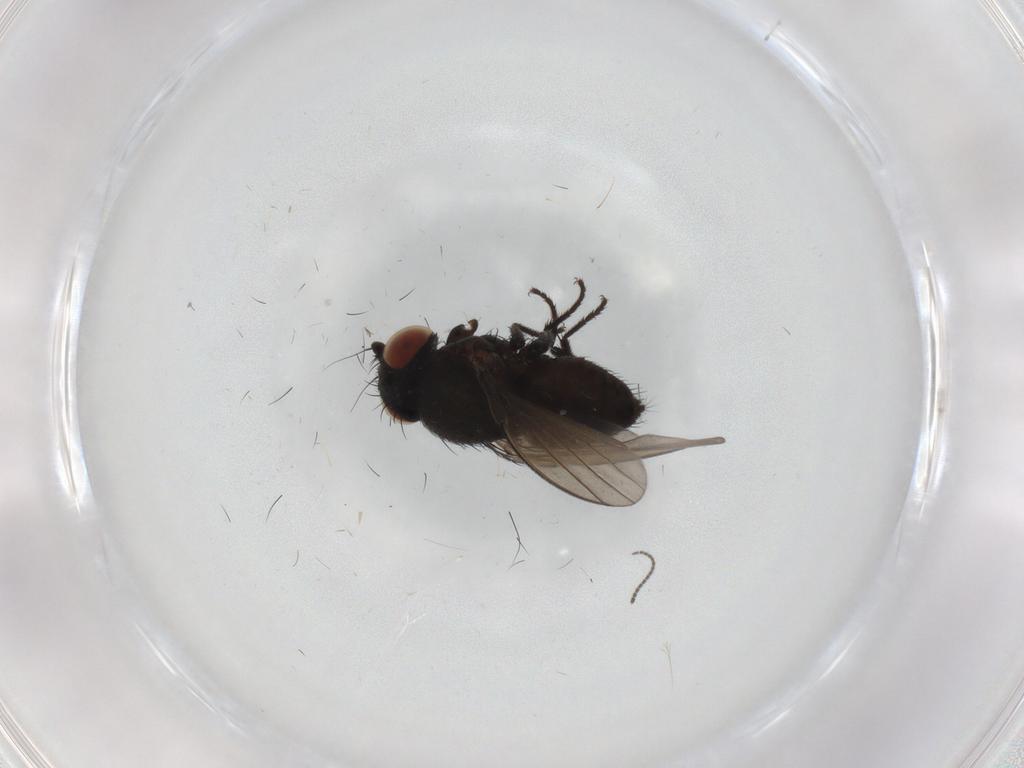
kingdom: Animalia
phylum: Arthropoda
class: Insecta
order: Diptera
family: Milichiidae
